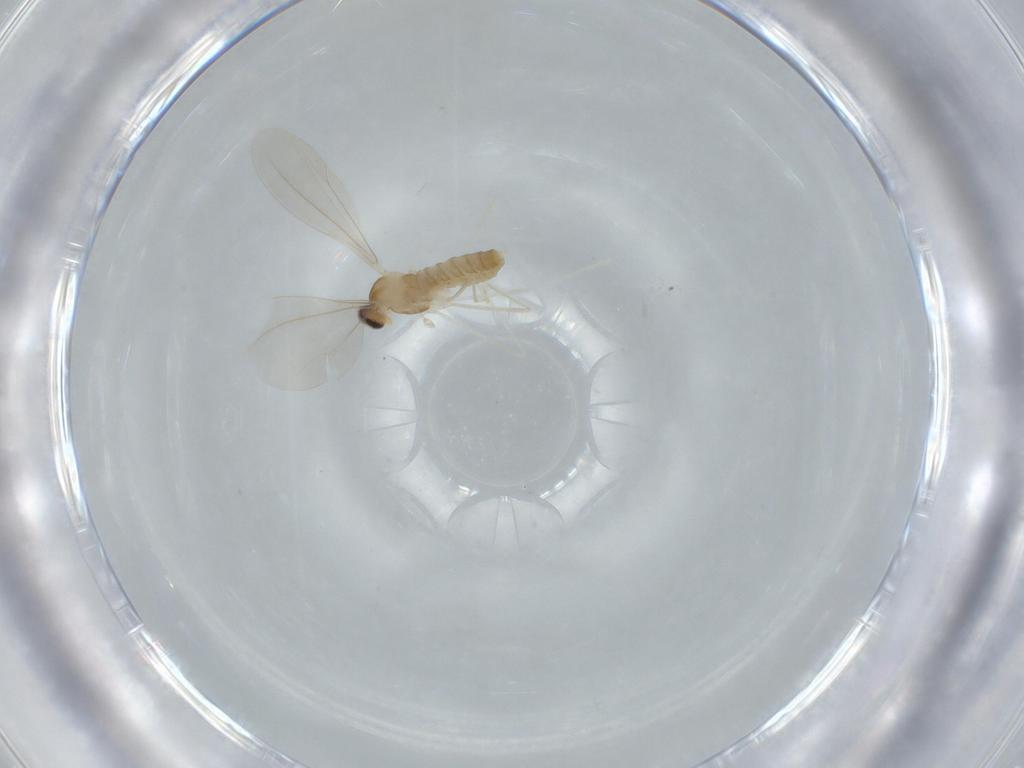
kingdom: Animalia
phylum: Arthropoda
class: Insecta
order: Diptera
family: Cecidomyiidae
